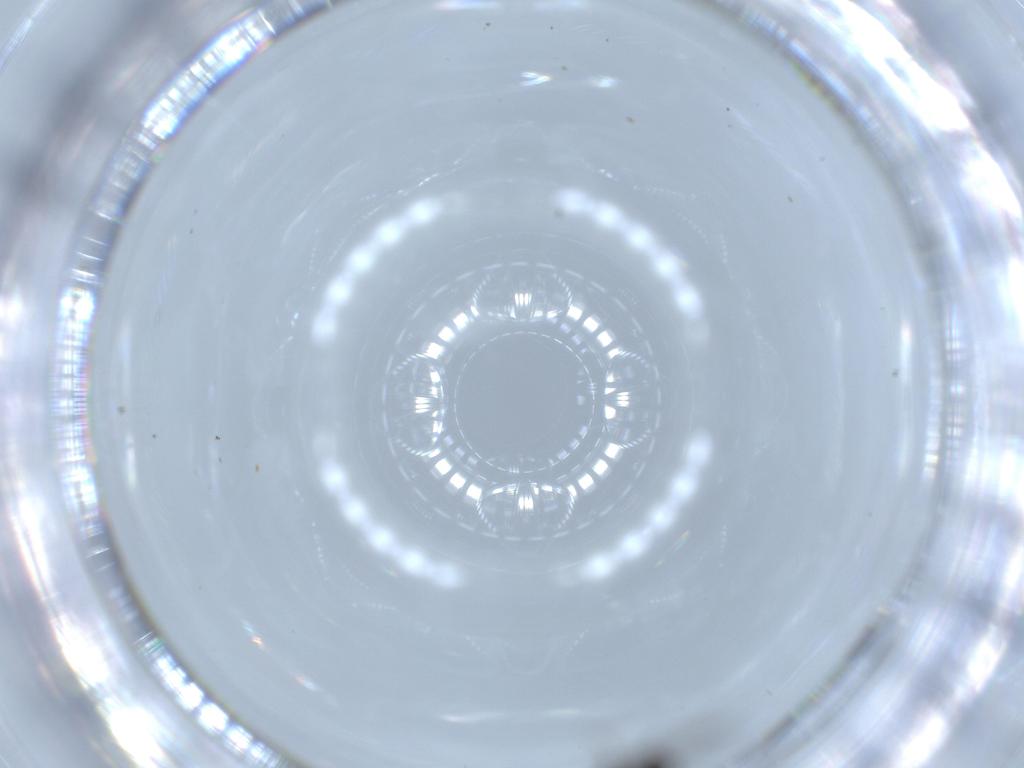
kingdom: Animalia
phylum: Arthropoda
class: Insecta
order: Hymenoptera
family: Ceraphronidae
